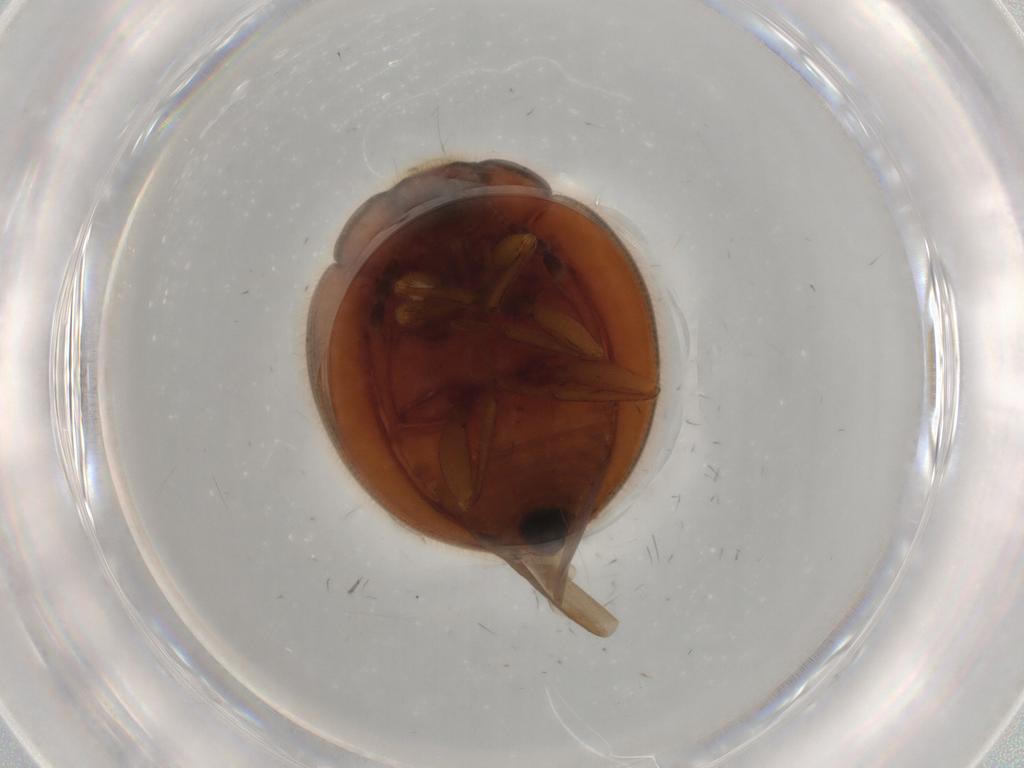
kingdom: Animalia
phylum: Arthropoda
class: Insecta
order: Coleoptera
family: Anamorphidae
